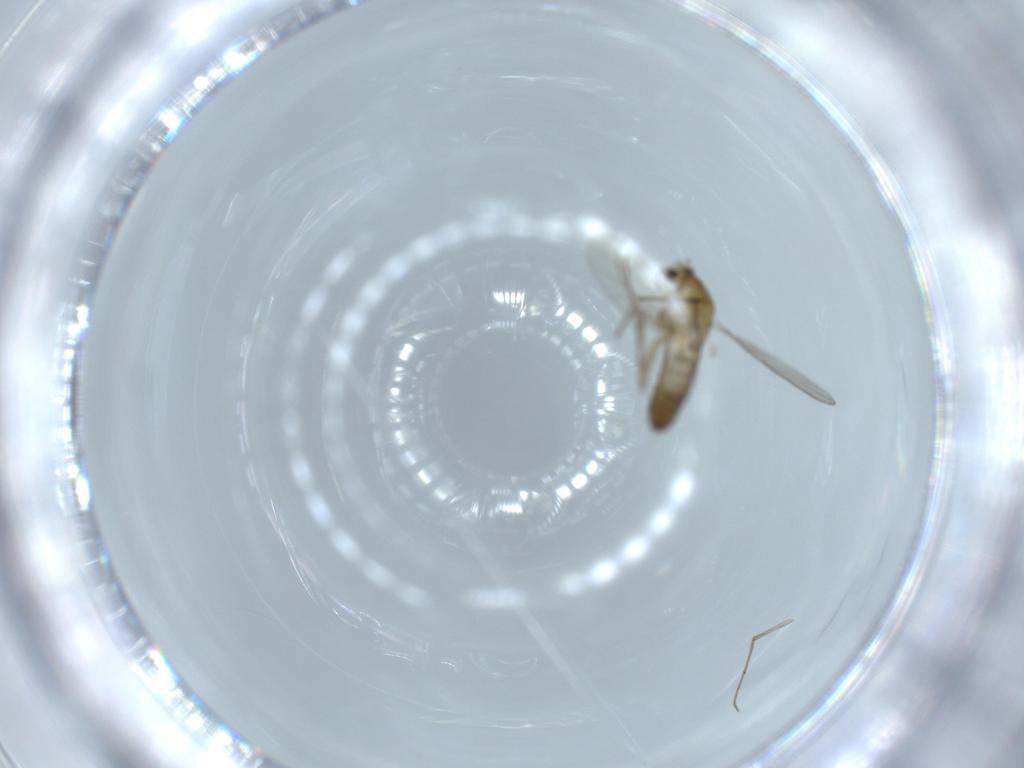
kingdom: Animalia
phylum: Arthropoda
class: Insecta
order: Diptera
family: Chironomidae
